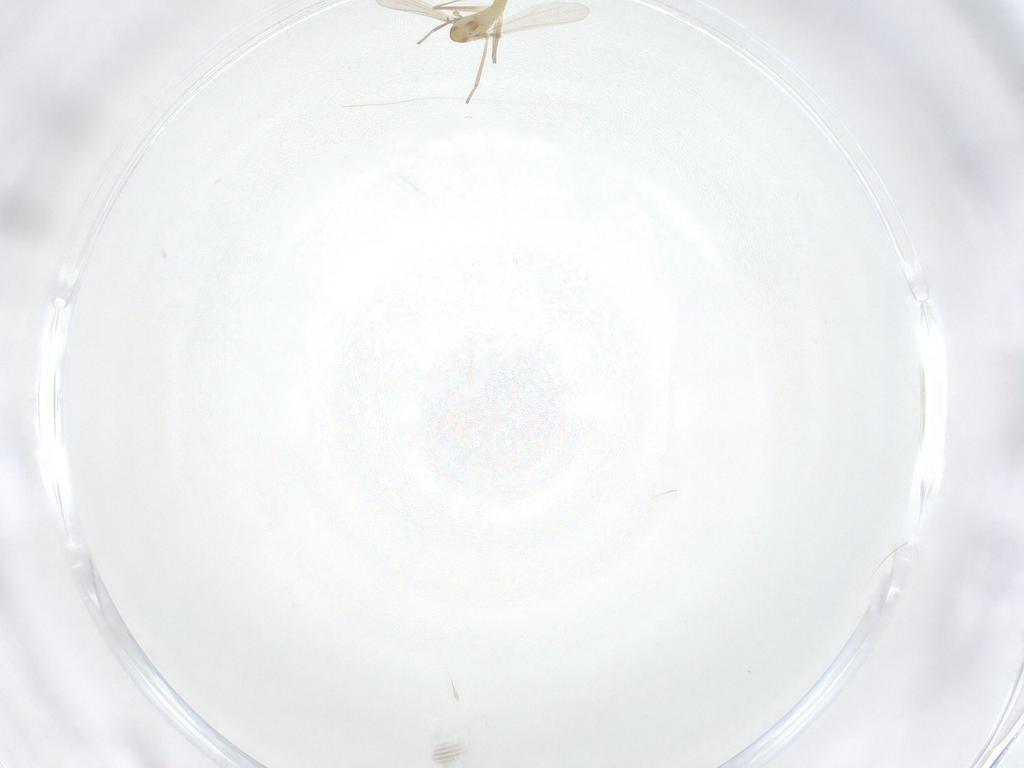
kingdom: Animalia
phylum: Arthropoda
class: Insecta
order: Diptera
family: Chironomidae
